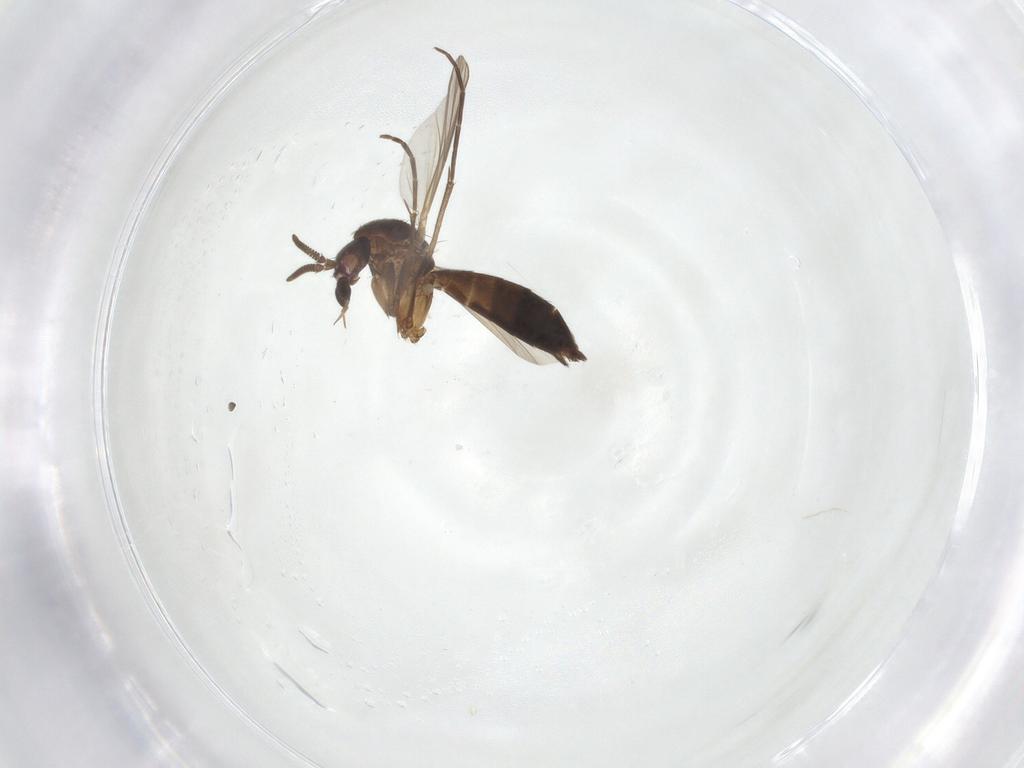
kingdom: Animalia
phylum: Arthropoda
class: Insecta
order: Diptera
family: Mycetophilidae
